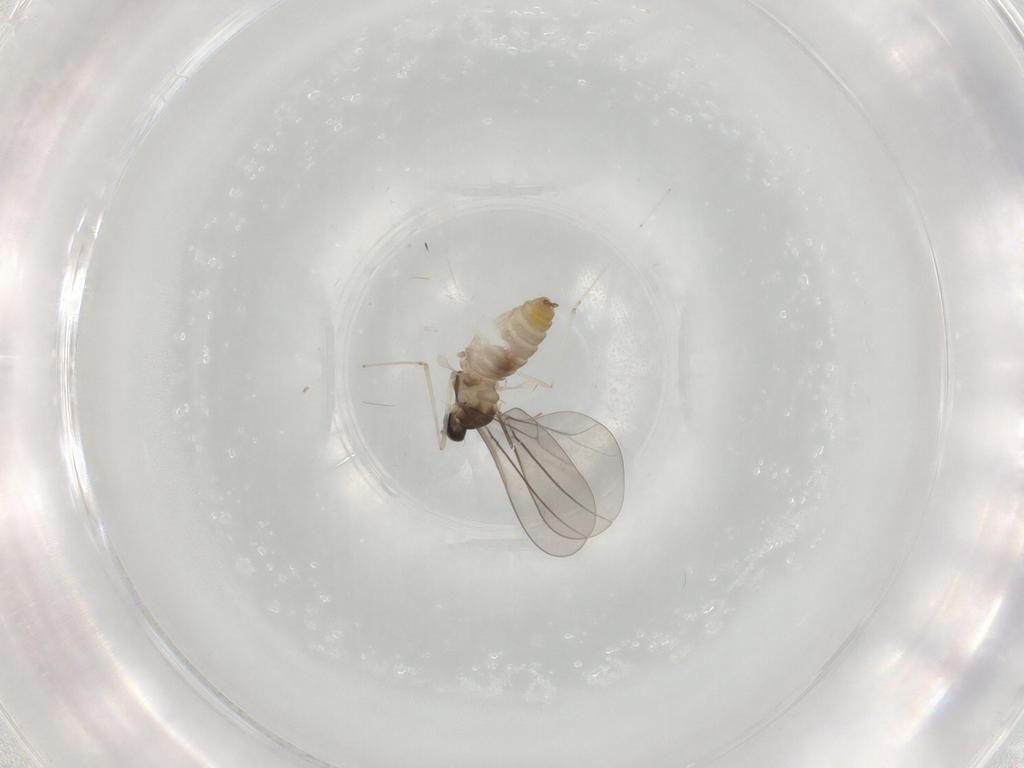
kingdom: Animalia
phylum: Arthropoda
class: Insecta
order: Diptera
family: Cecidomyiidae
